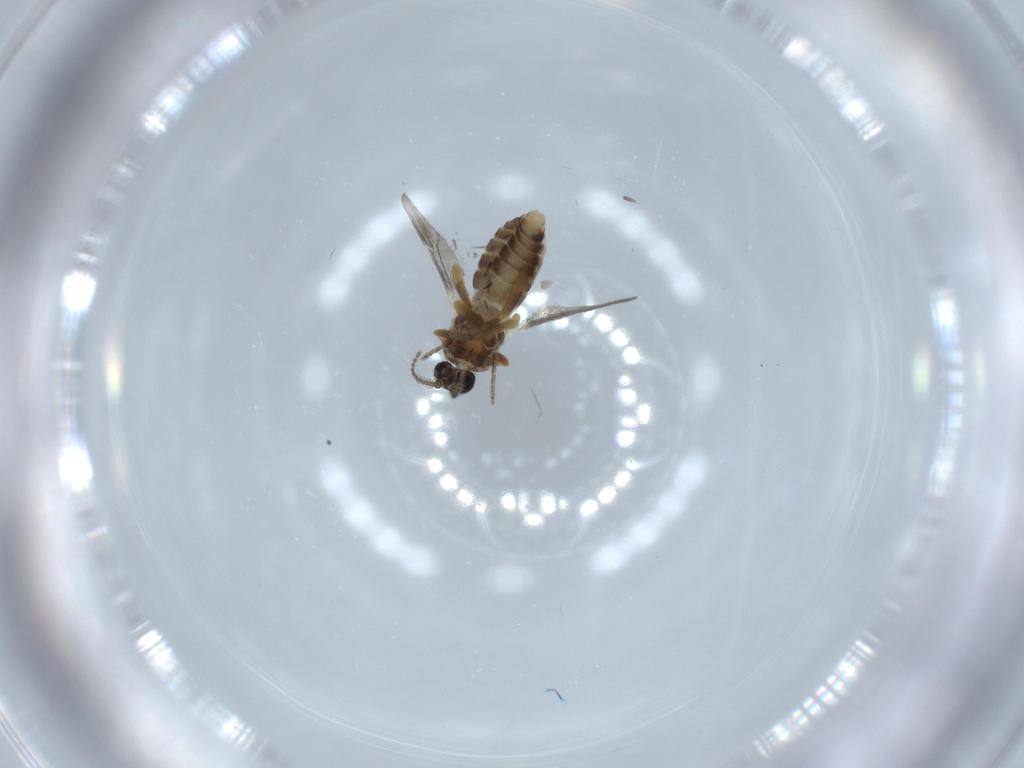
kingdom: Animalia
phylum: Arthropoda
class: Insecta
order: Diptera
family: Ceratopogonidae
